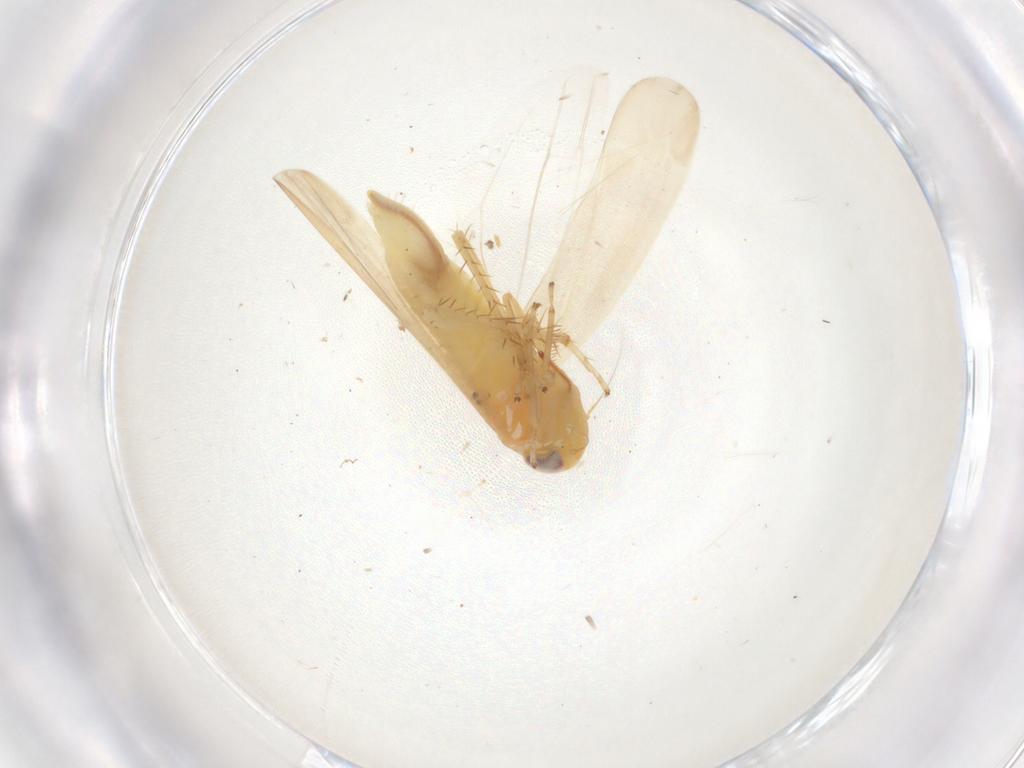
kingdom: Animalia
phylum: Arthropoda
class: Insecta
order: Hemiptera
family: Cicadellidae
